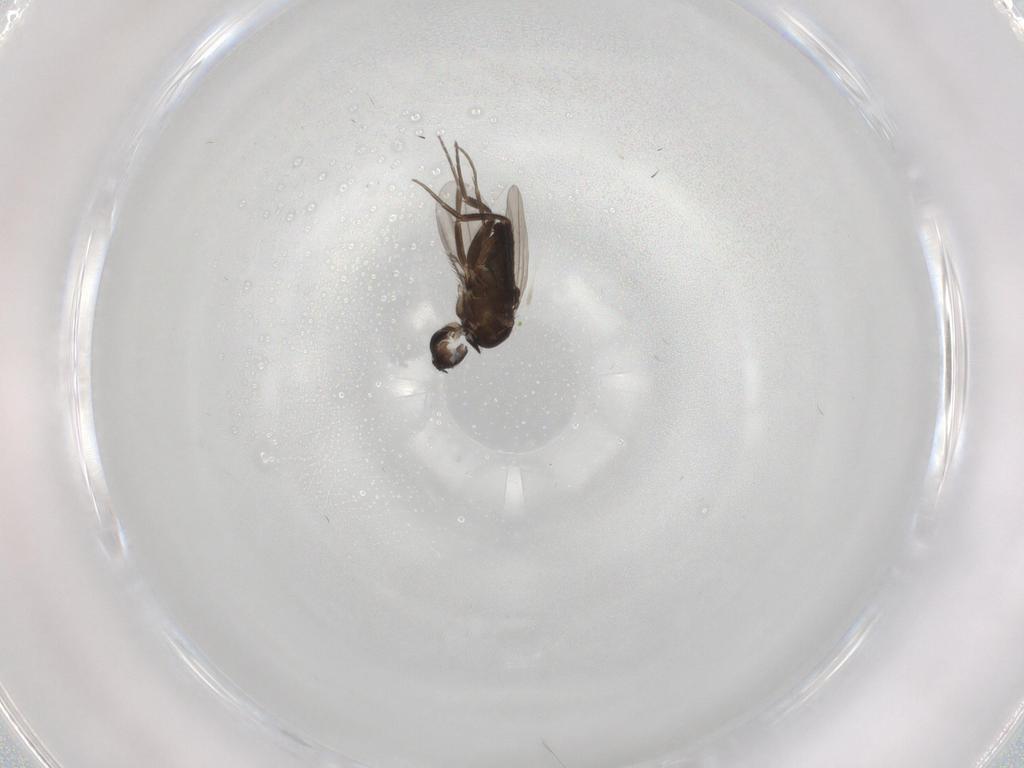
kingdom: Animalia
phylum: Arthropoda
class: Insecta
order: Diptera
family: Phoridae
